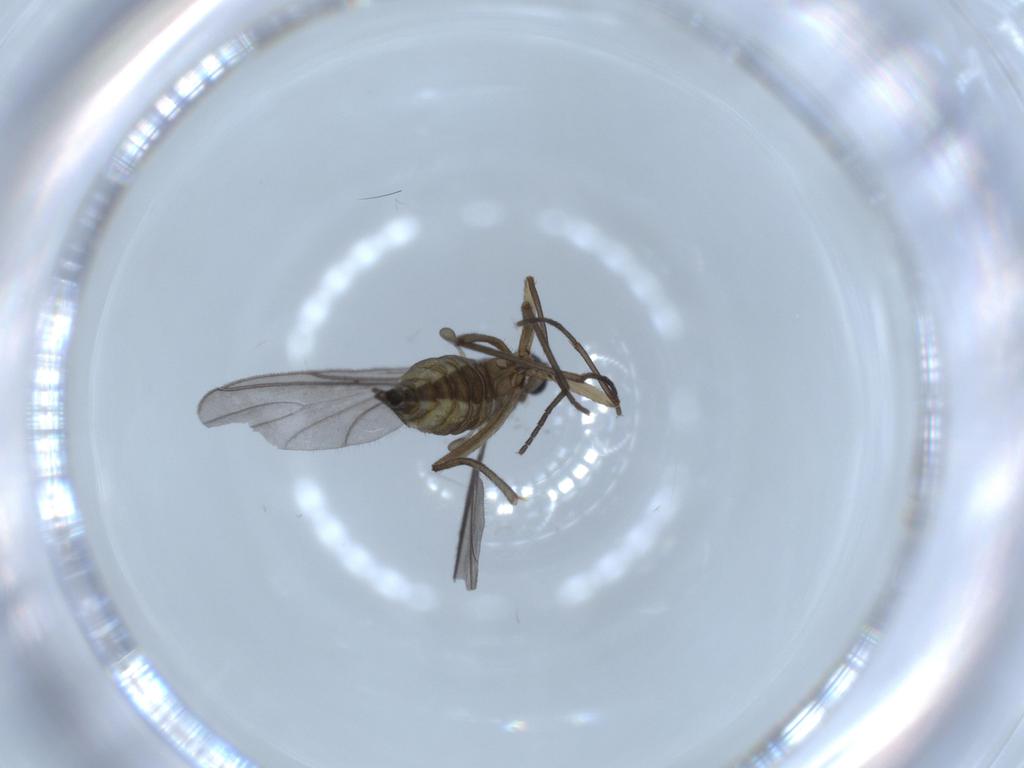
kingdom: Animalia
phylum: Arthropoda
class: Insecta
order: Diptera
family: Sciaridae
